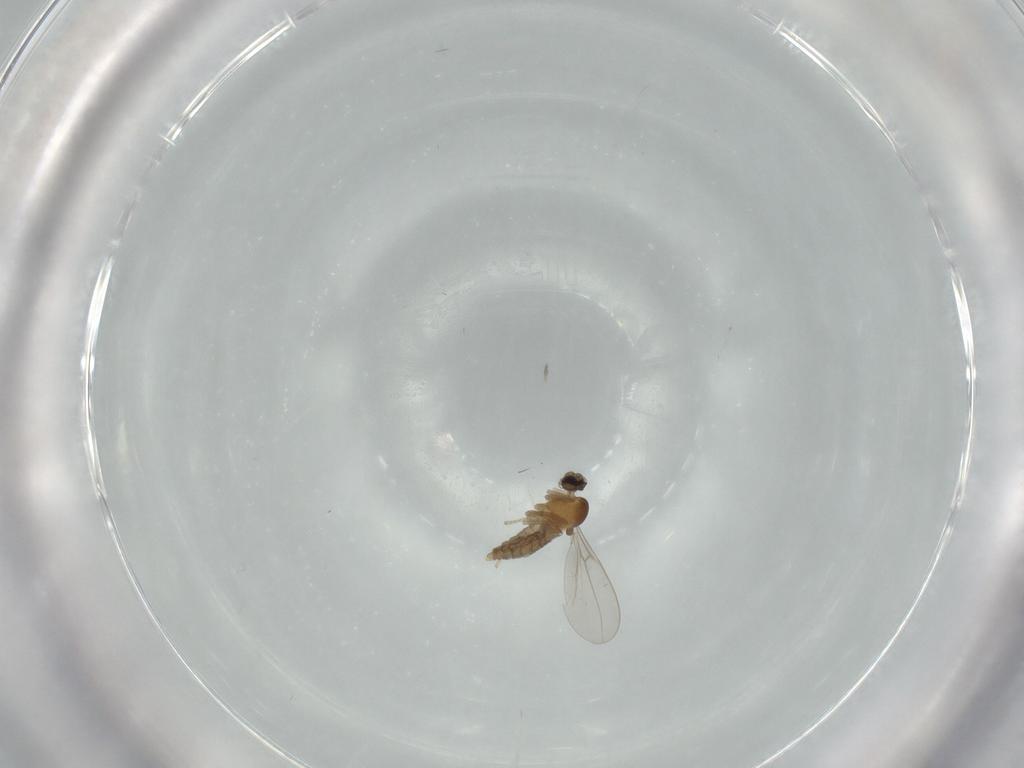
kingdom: Animalia
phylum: Arthropoda
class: Insecta
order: Diptera
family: Cecidomyiidae
